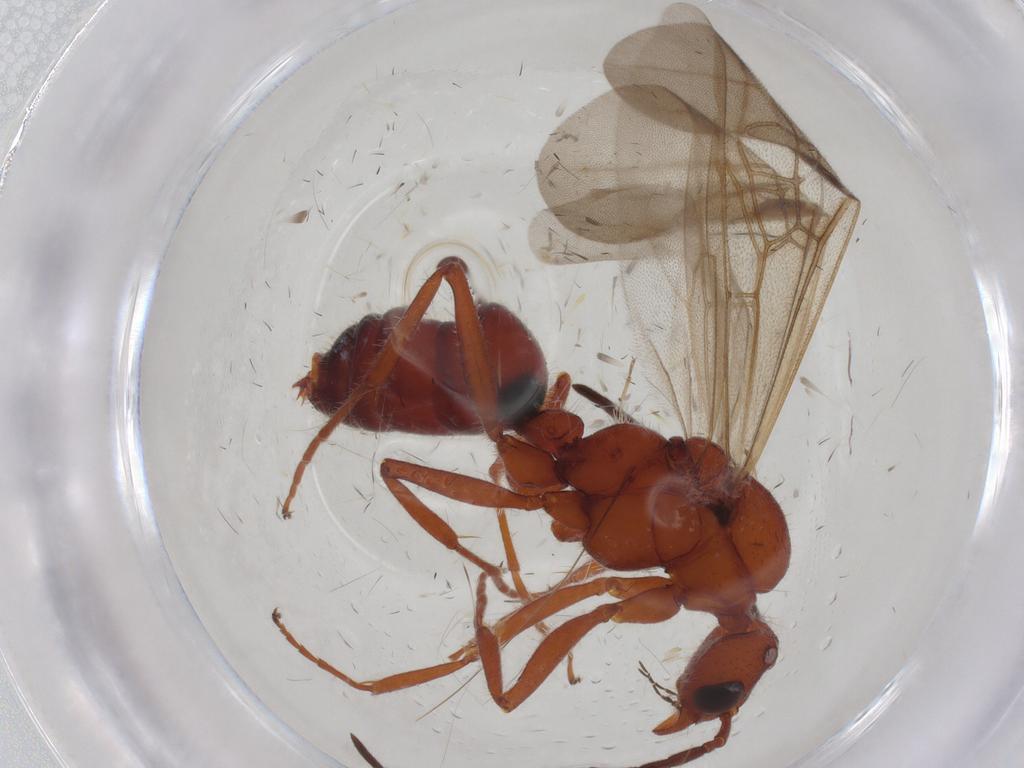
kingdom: Animalia
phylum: Arthropoda
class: Insecta
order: Hymenoptera
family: Formicidae
